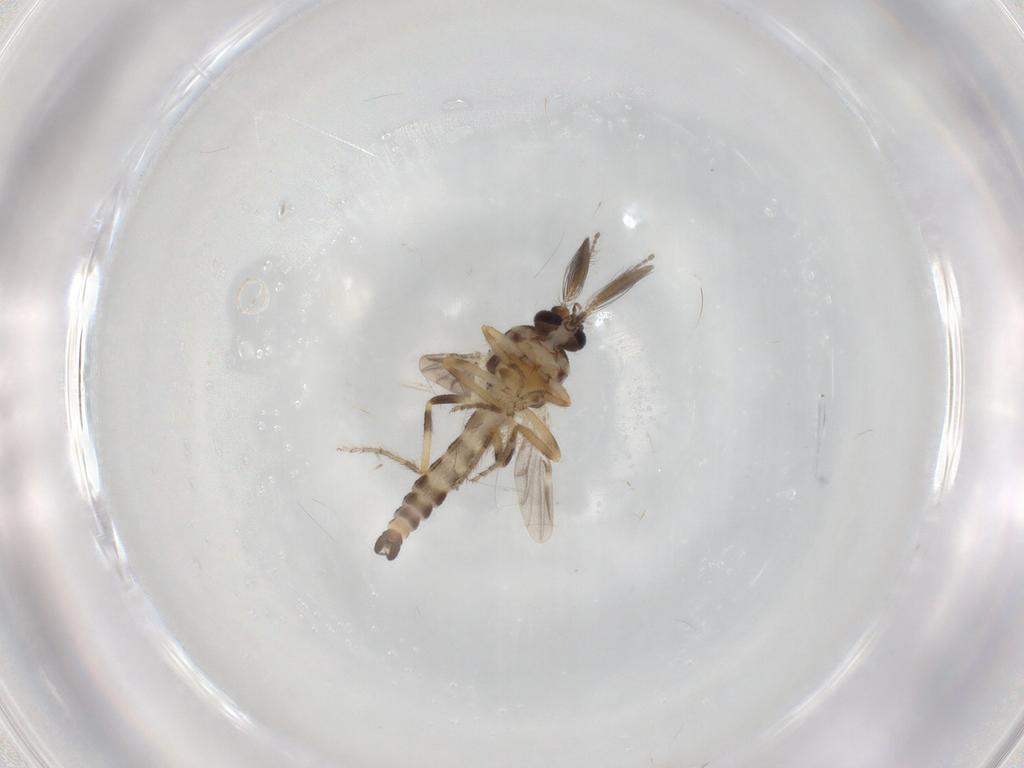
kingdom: Animalia
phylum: Arthropoda
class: Insecta
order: Diptera
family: Ceratopogonidae
